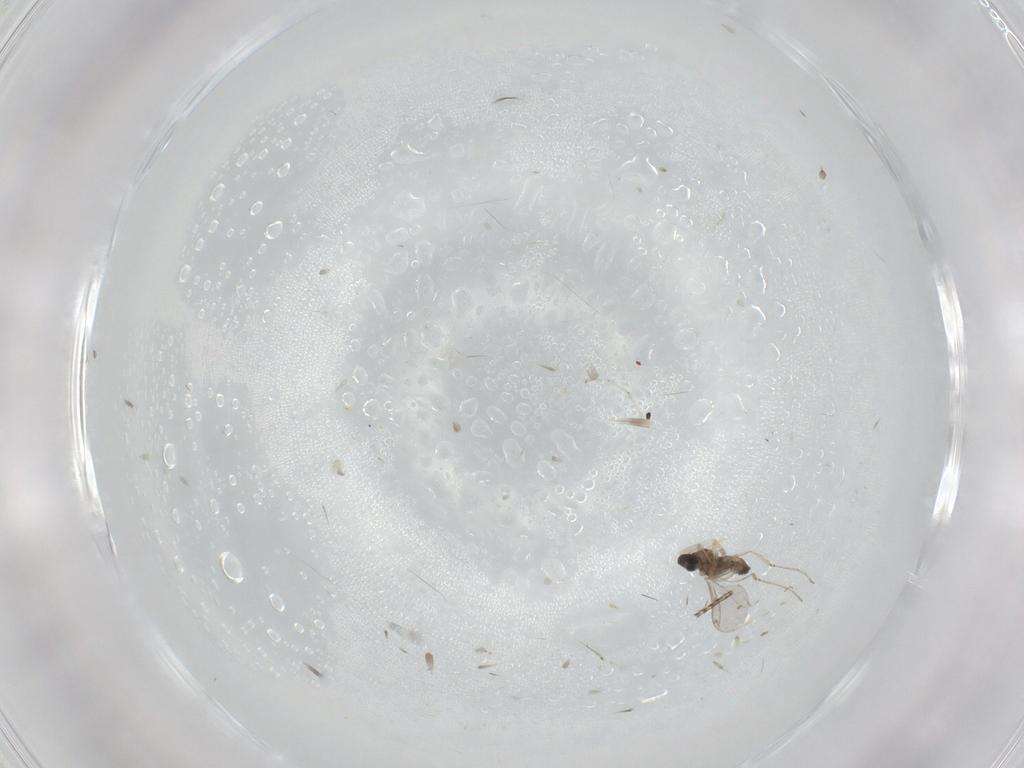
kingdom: Animalia
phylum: Arthropoda
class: Insecta
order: Diptera
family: Cecidomyiidae
